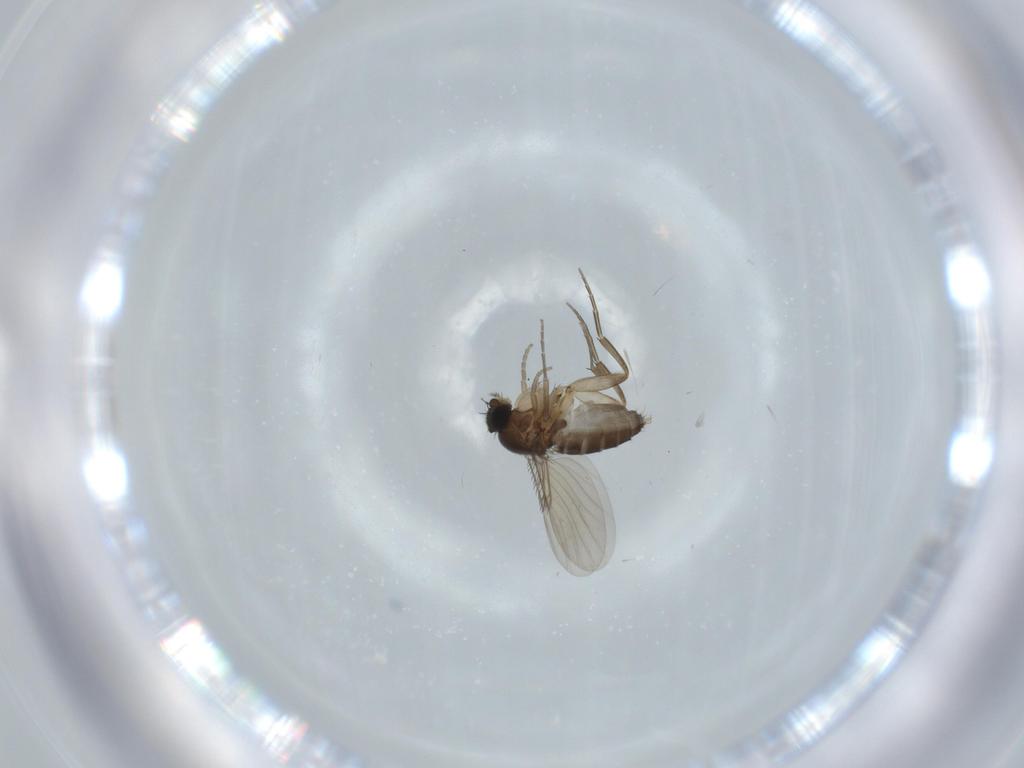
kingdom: Animalia
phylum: Arthropoda
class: Insecta
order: Diptera
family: Phoridae
